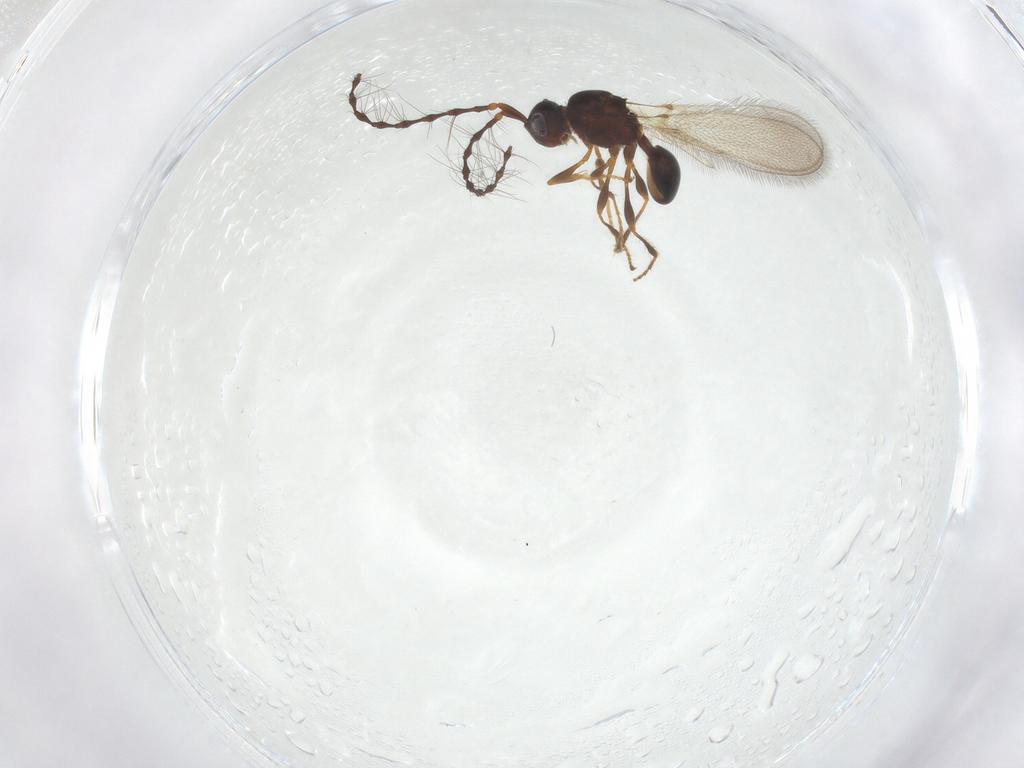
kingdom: Animalia
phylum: Arthropoda
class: Insecta
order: Hymenoptera
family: Diapriidae
